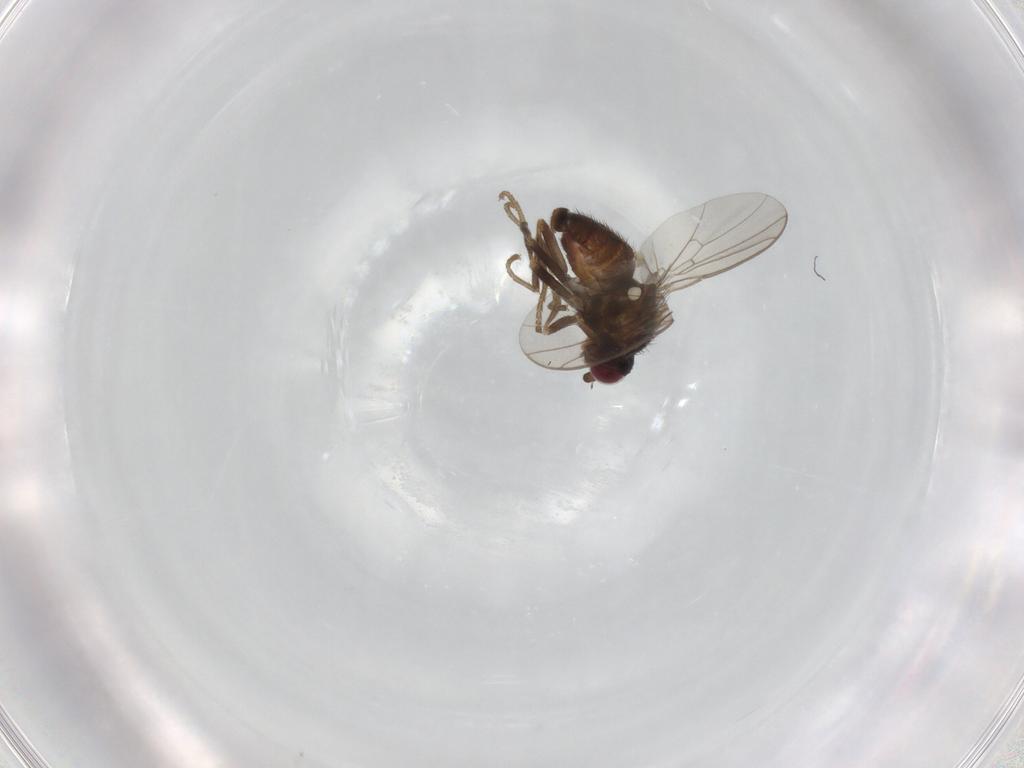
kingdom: Animalia
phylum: Arthropoda
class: Insecta
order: Diptera
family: Agromyzidae
